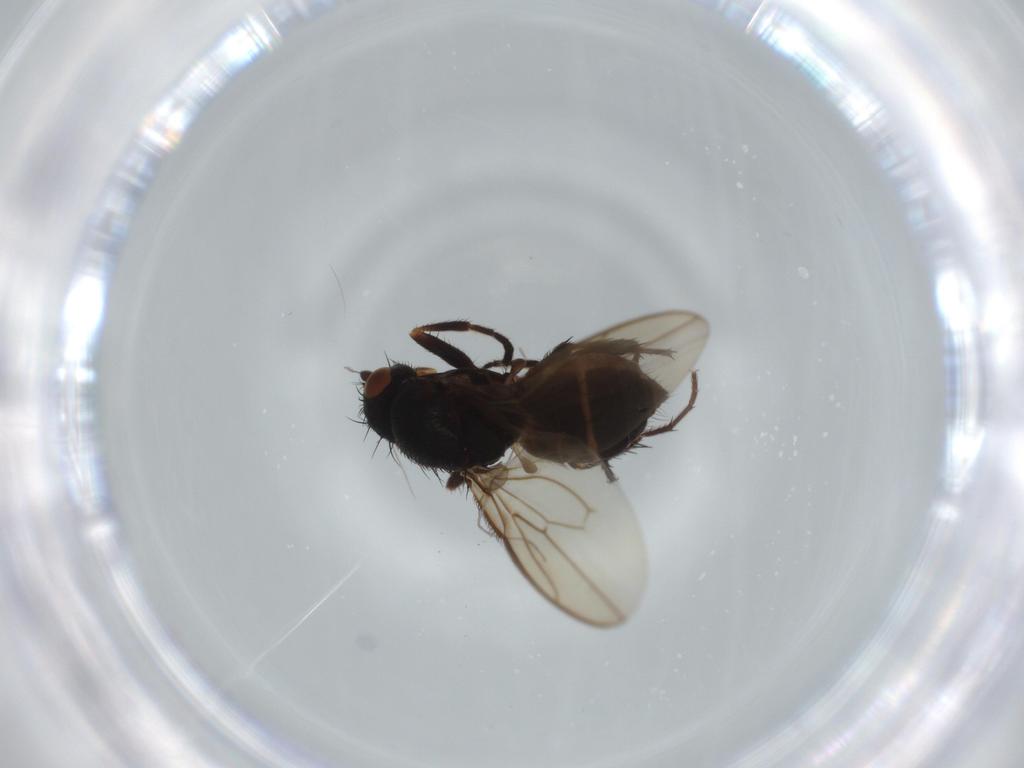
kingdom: Animalia
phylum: Arthropoda
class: Insecta
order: Diptera
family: Sphaeroceridae
